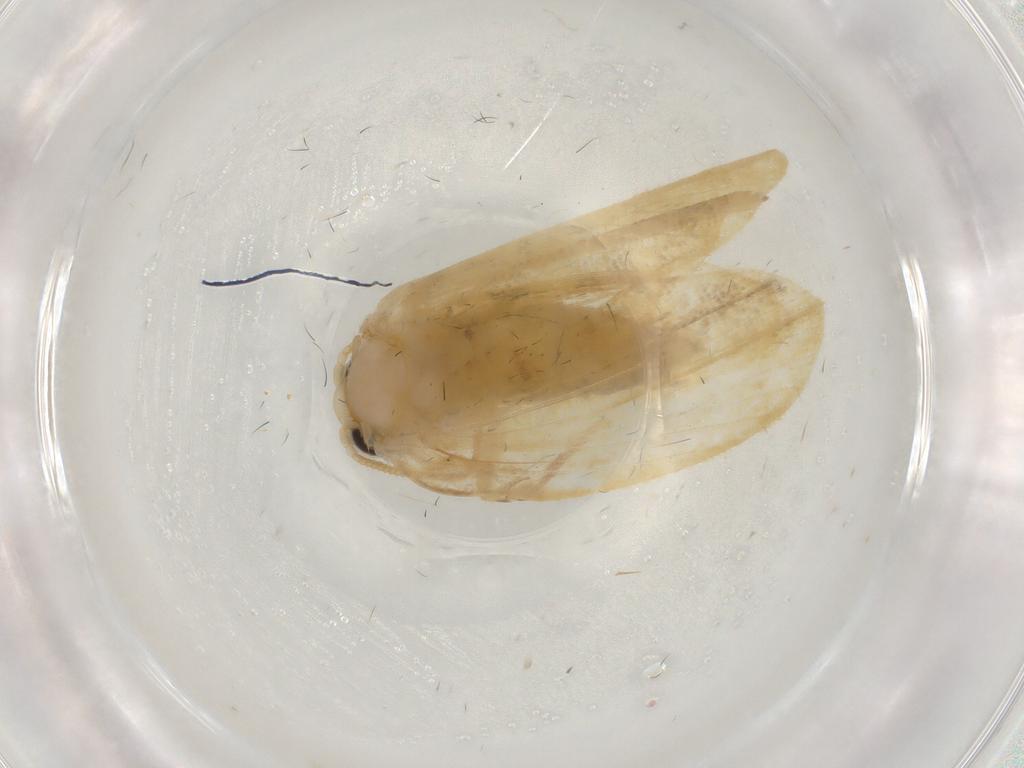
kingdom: Animalia
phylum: Arthropoda
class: Insecta
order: Lepidoptera
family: Psychidae
